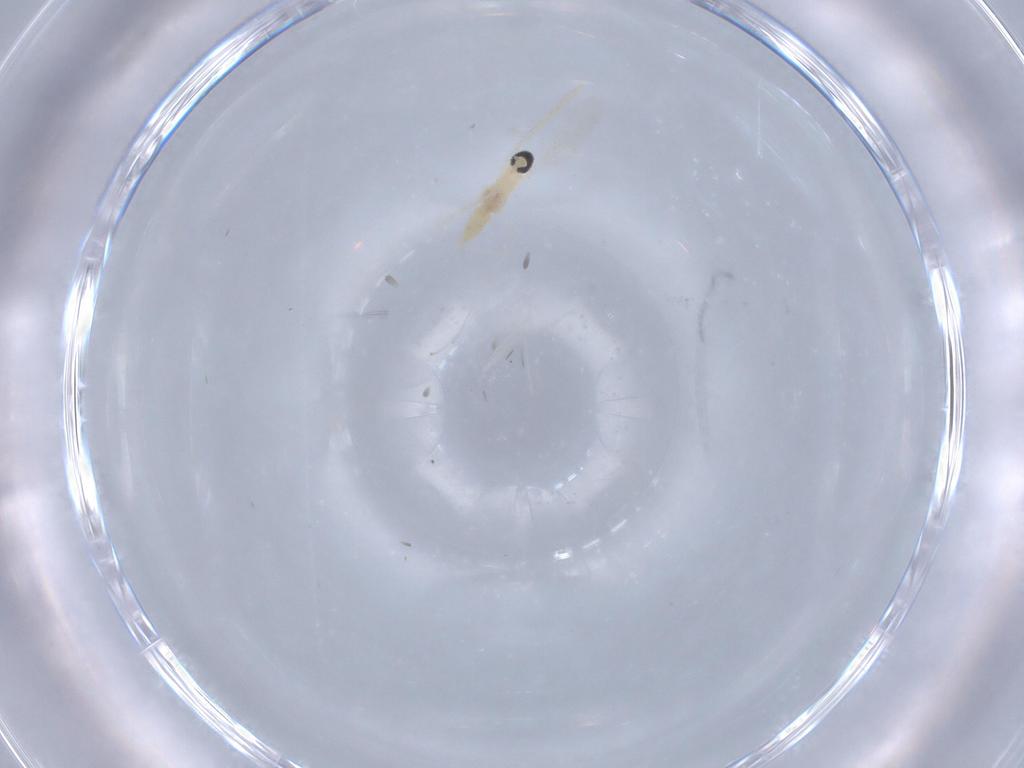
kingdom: Animalia
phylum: Arthropoda
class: Insecta
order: Diptera
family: Cecidomyiidae
